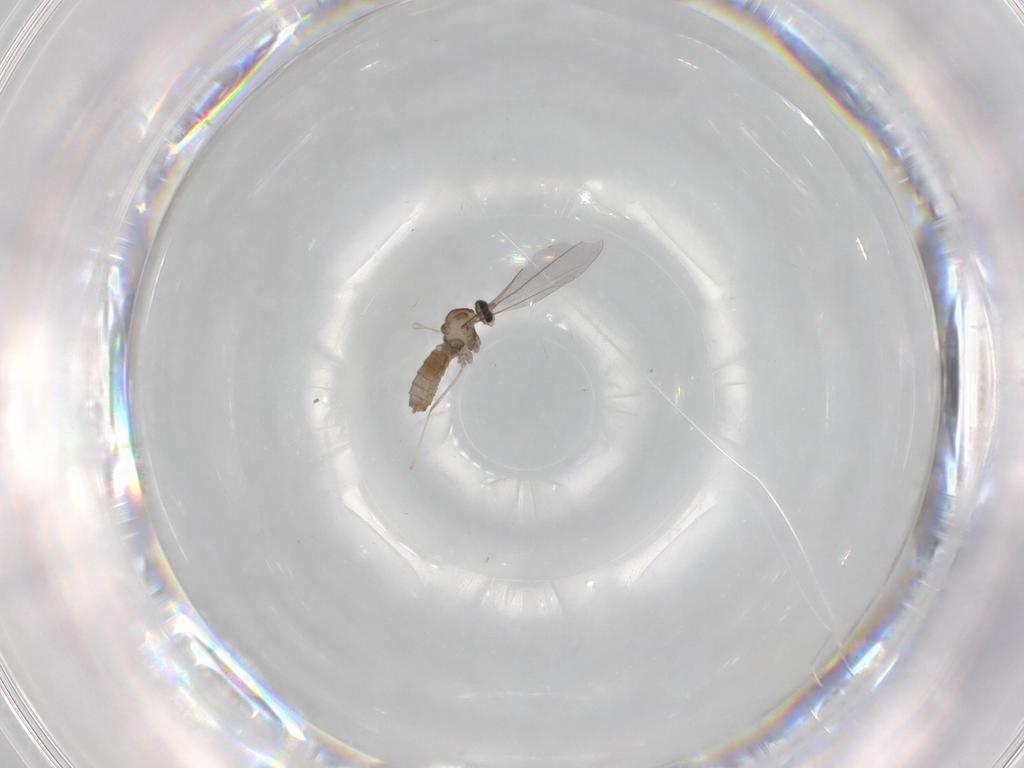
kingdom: Animalia
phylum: Arthropoda
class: Insecta
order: Diptera
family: Cecidomyiidae
